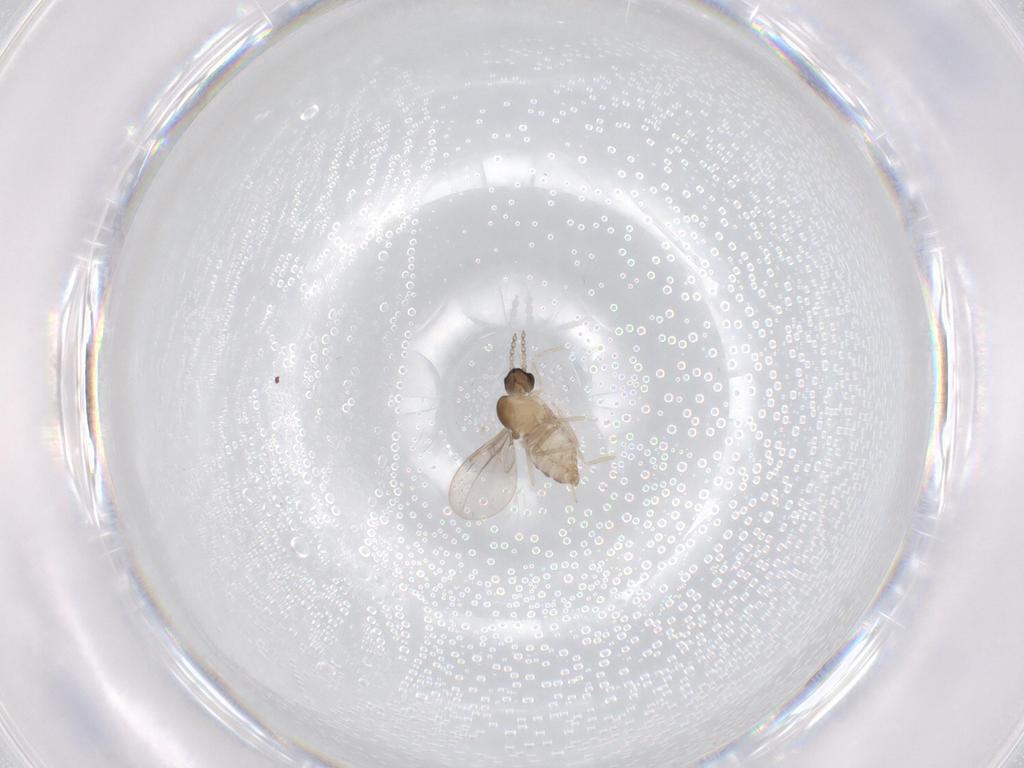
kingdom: Animalia
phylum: Arthropoda
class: Insecta
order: Diptera
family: Cecidomyiidae
